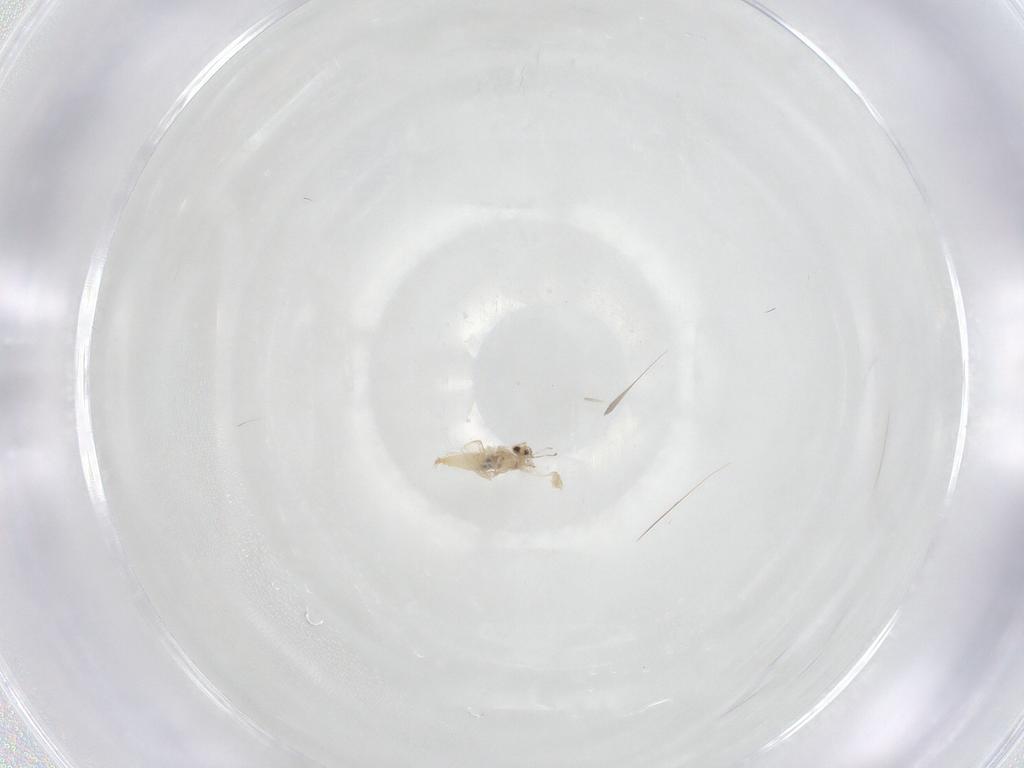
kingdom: Animalia
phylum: Arthropoda
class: Insecta
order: Diptera
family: Cecidomyiidae
